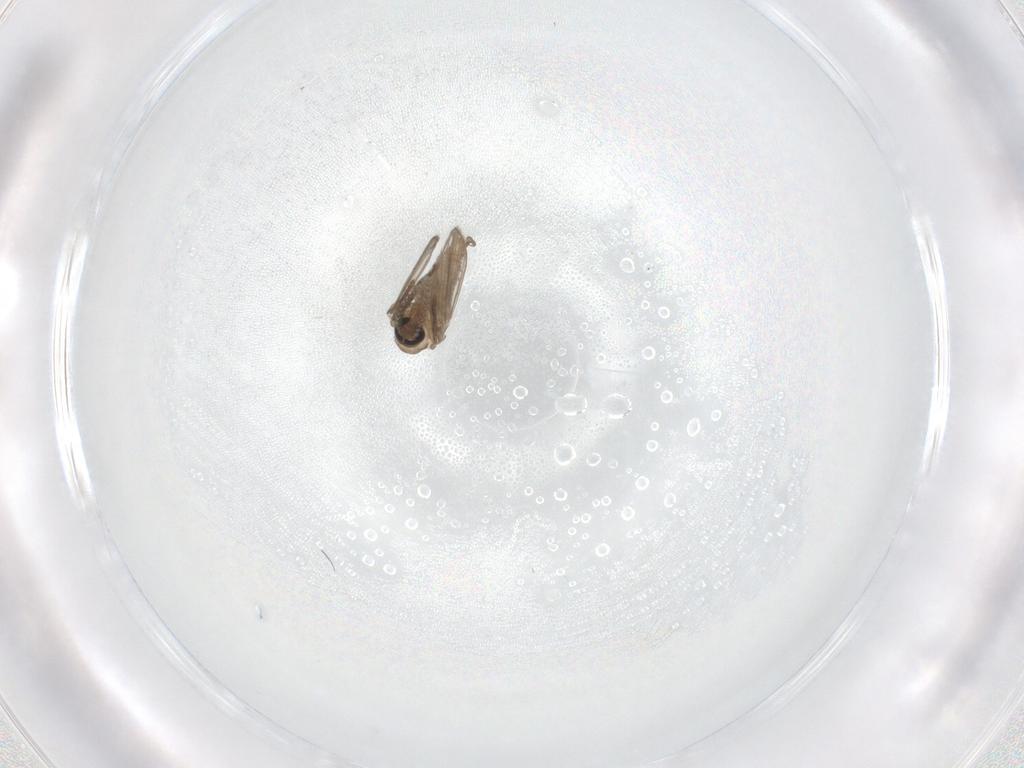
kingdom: Animalia
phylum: Arthropoda
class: Insecta
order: Diptera
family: Psychodidae
